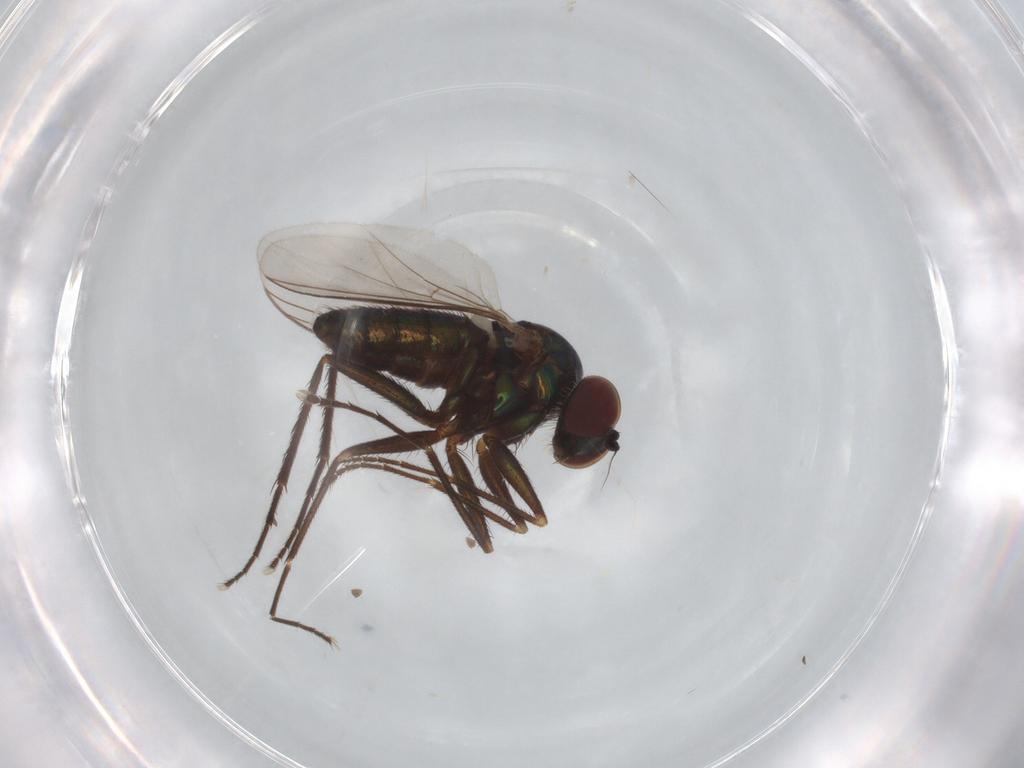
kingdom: Animalia
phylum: Arthropoda
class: Insecta
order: Diptera
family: Dolichopodidae
